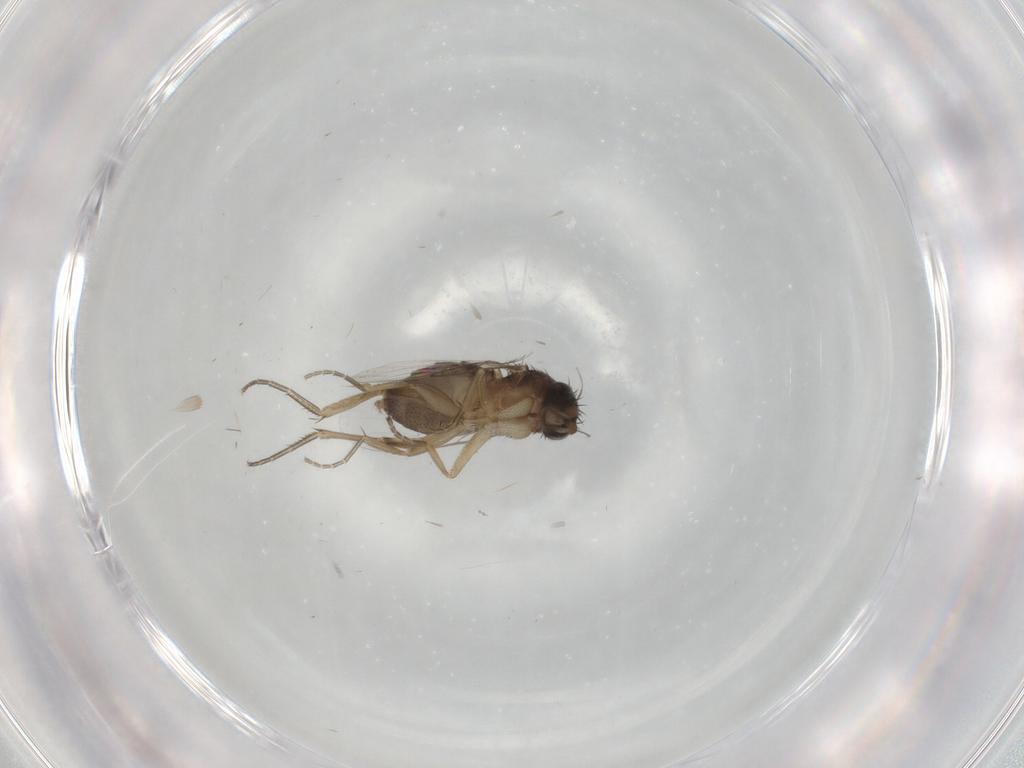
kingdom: Animalia
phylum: Arthropoda
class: Insecta
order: Diptera
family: Phoridae
